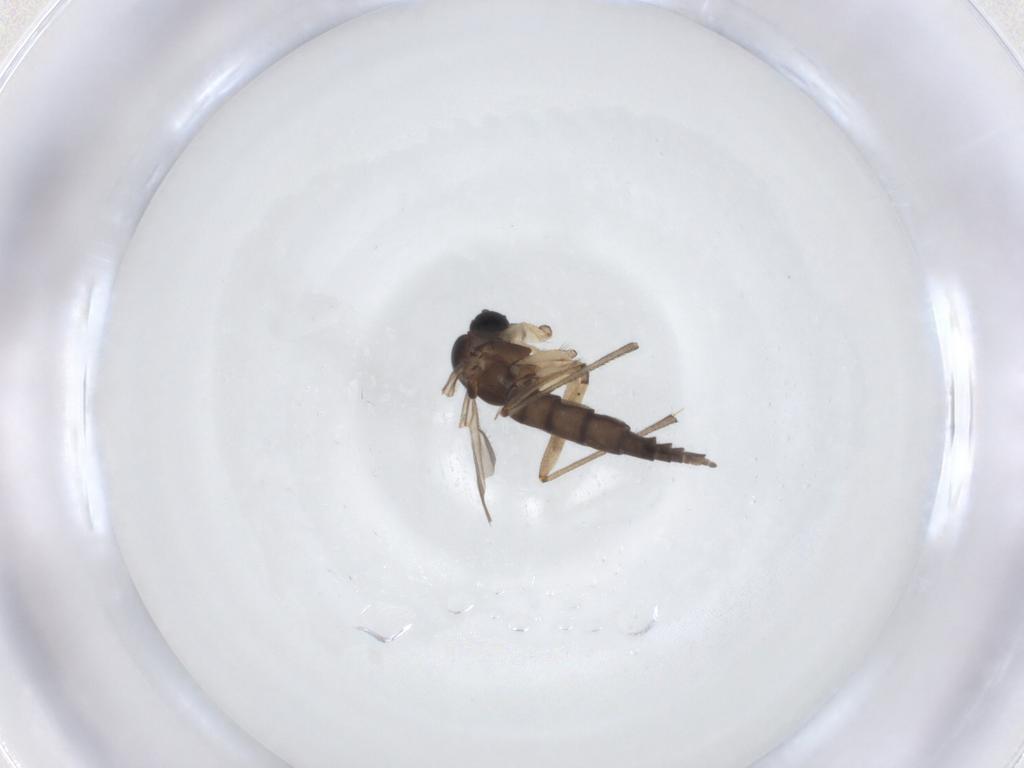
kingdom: Animalia
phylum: Arthropoda
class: Insecta
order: Diptera
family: Sciaridae
